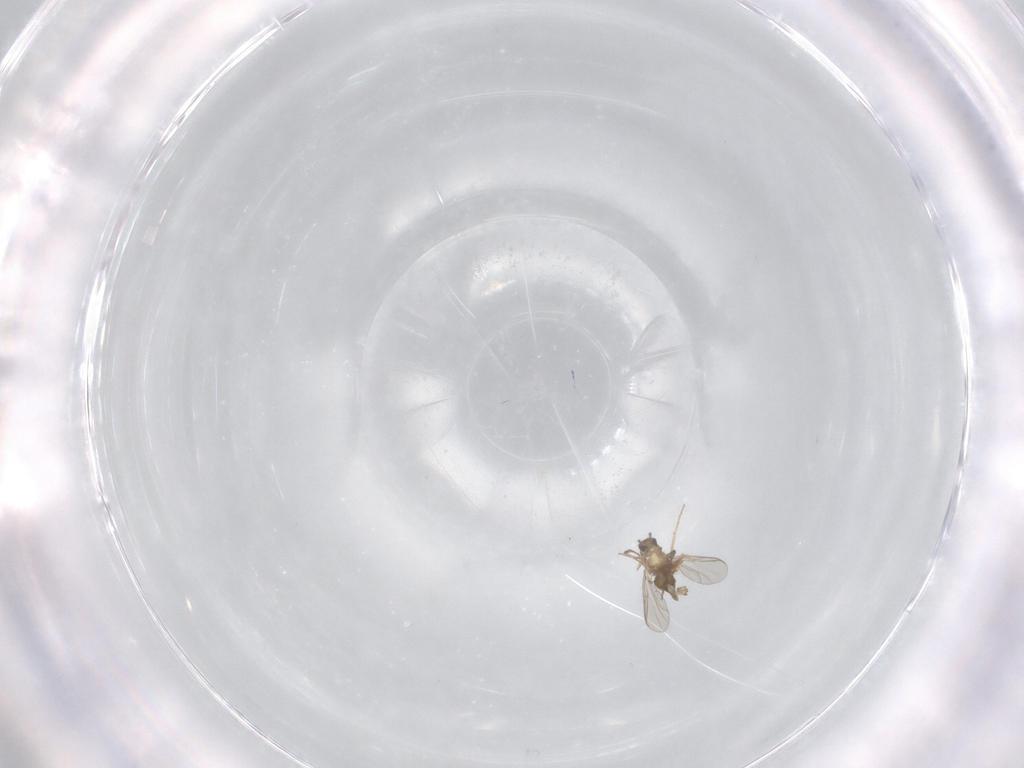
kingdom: Animalia
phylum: Arthropoda
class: Insecta
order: Diptera
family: Chironomidae
